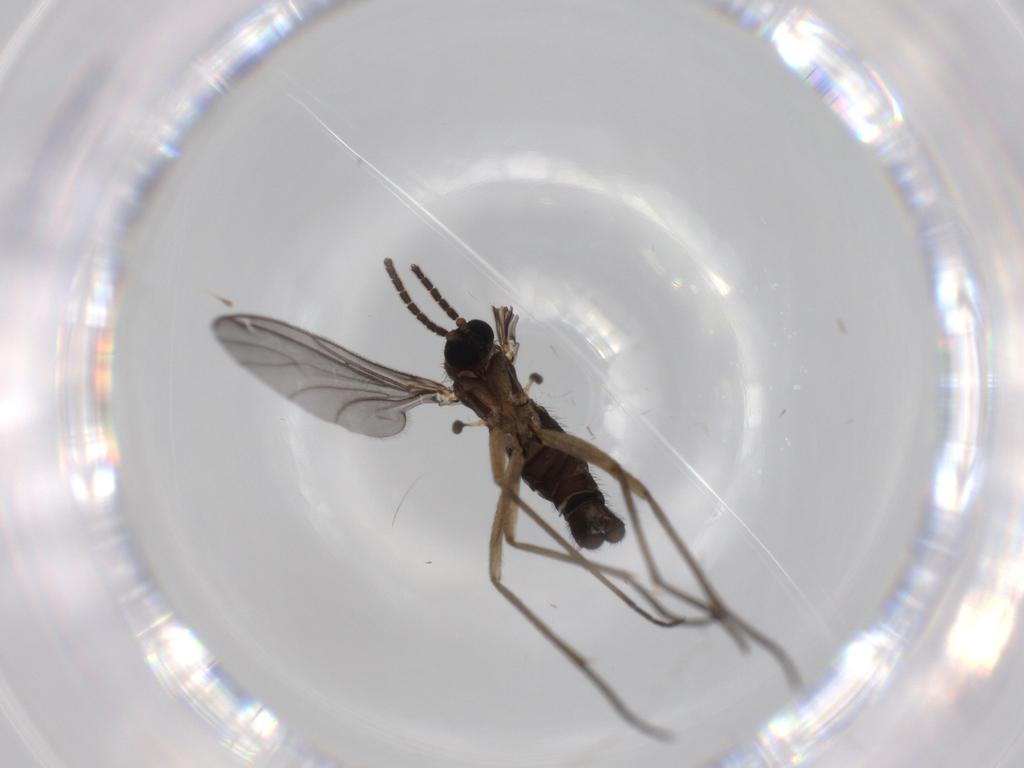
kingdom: Animalia
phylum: Arthropoda
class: Insecta
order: Diptera
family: Sciaridae
